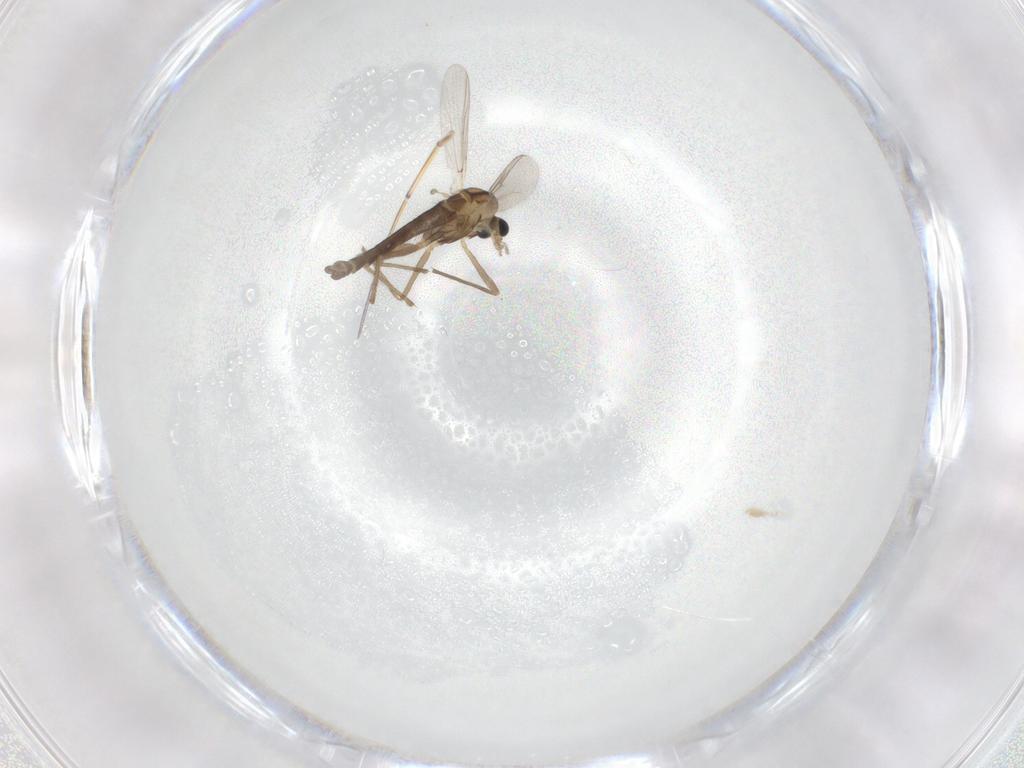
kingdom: Animalia
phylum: Arthropoda
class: Insecta
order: Diptera
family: Chironomidae
